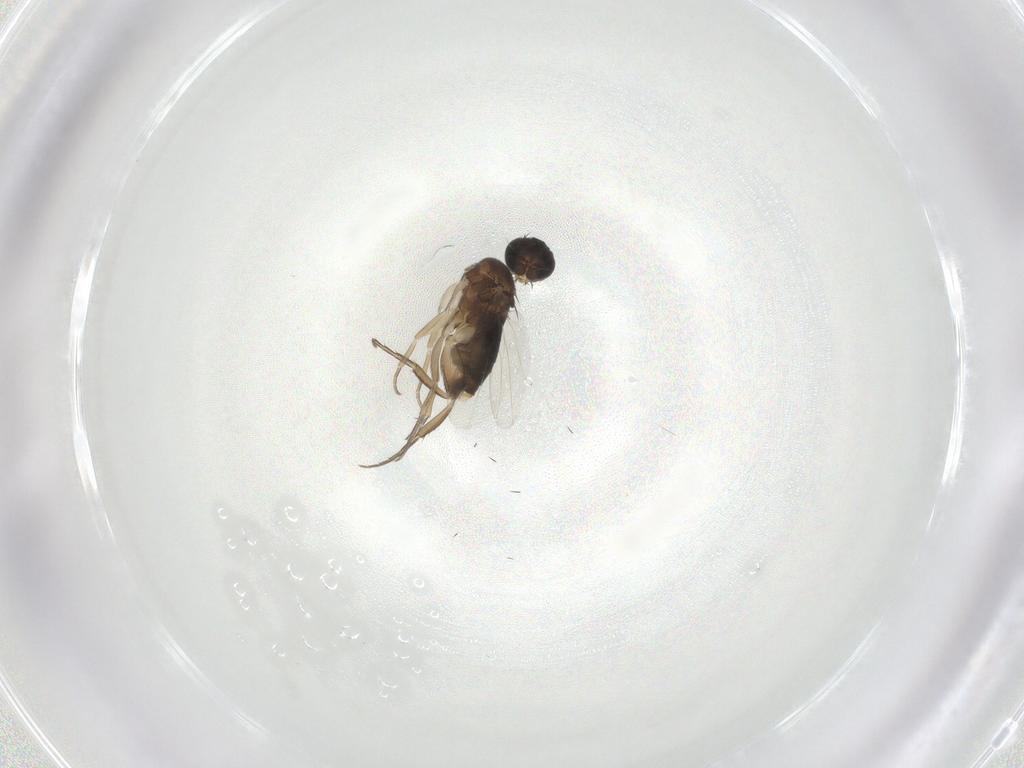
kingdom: Animalia
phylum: Arthropoda
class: Insecta
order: Diptera
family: Phoridae
